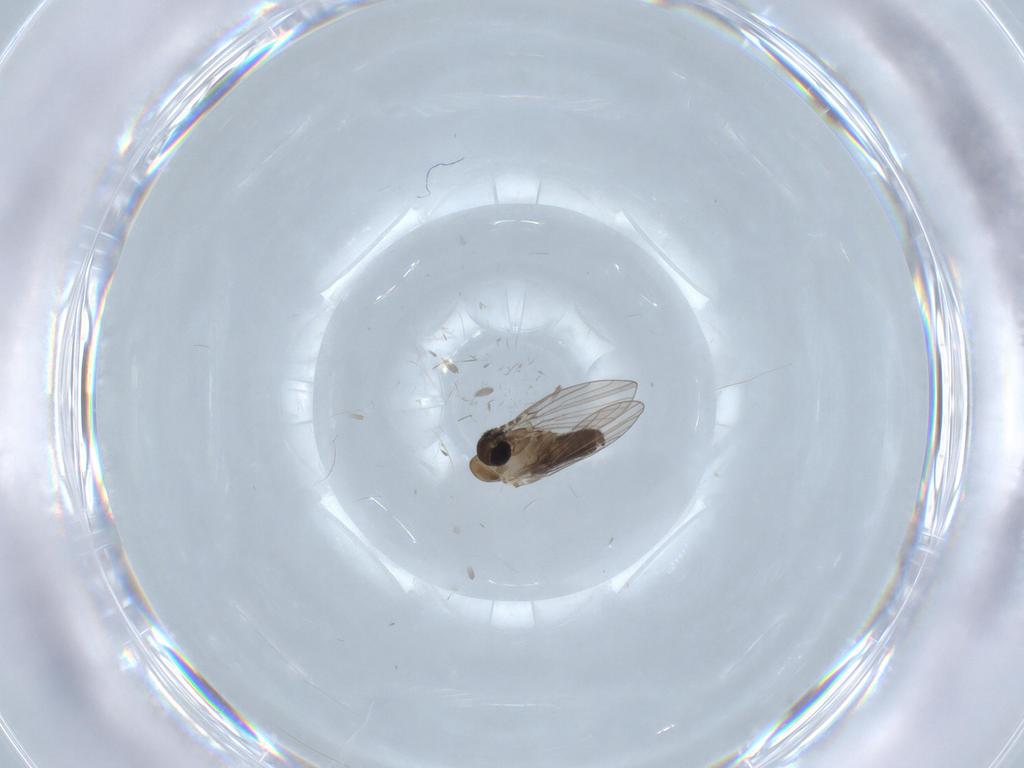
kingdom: Animalia
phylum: Arthropoda
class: Insecta
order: Diptera
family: Psychodidae
